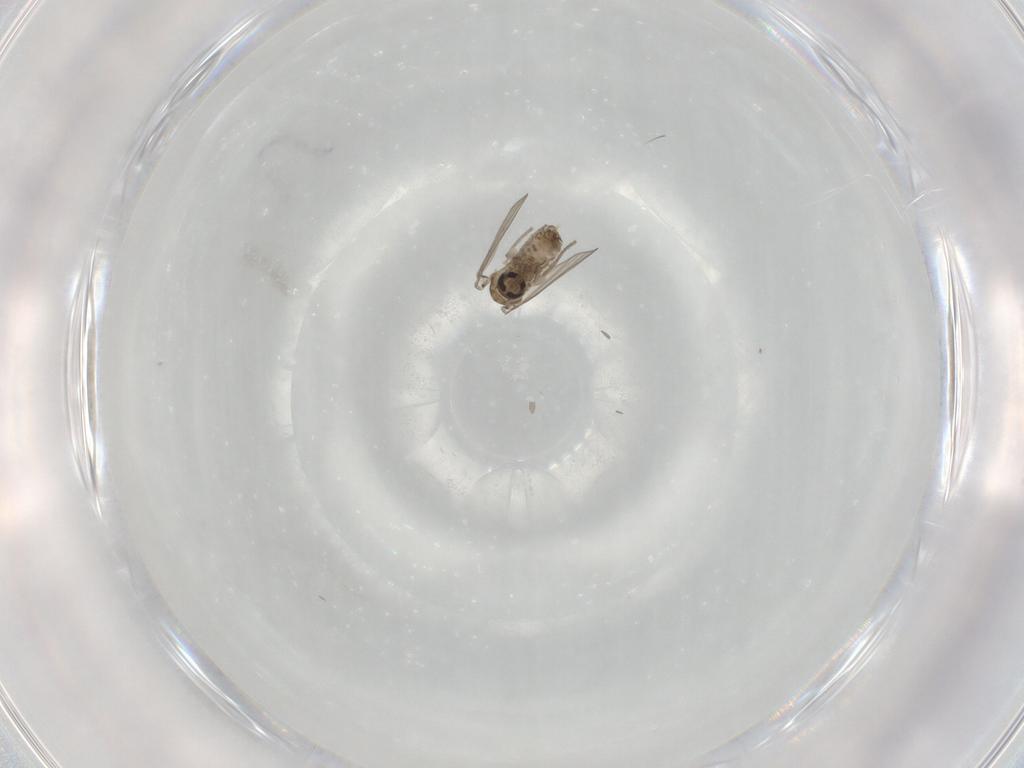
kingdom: Animalia
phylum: Arthropoda
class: Insecta
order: Diptera
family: Psychodidae
